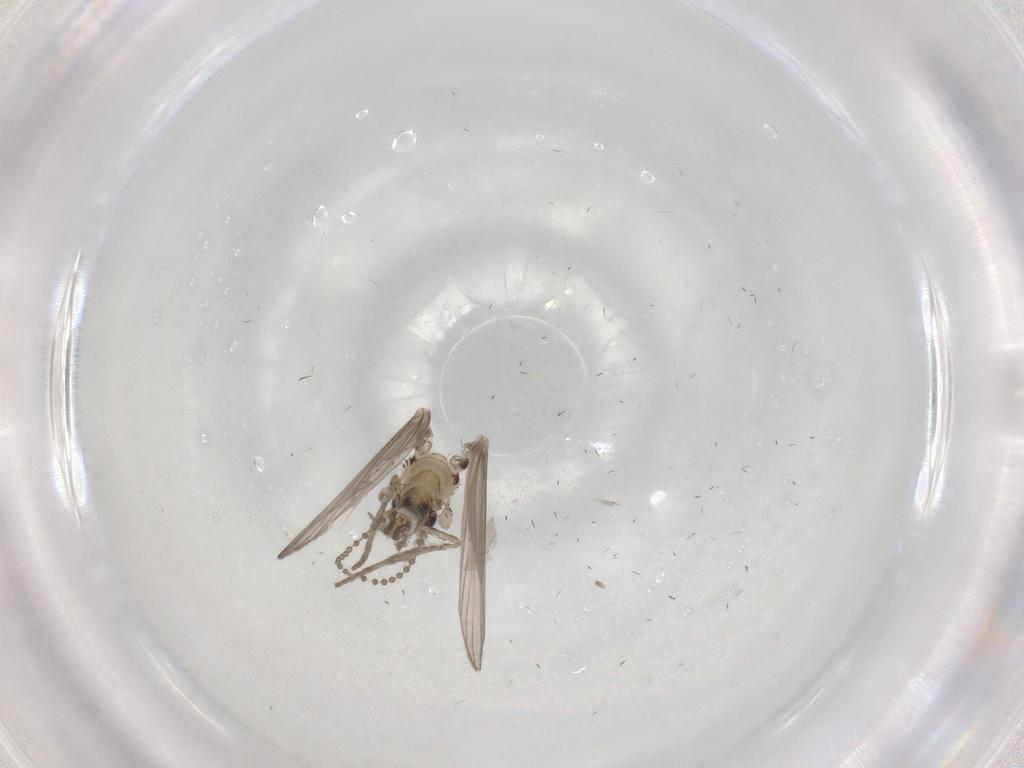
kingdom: Animalia
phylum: Arthropoda
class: Insecta
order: Diptera
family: Psychodidae
